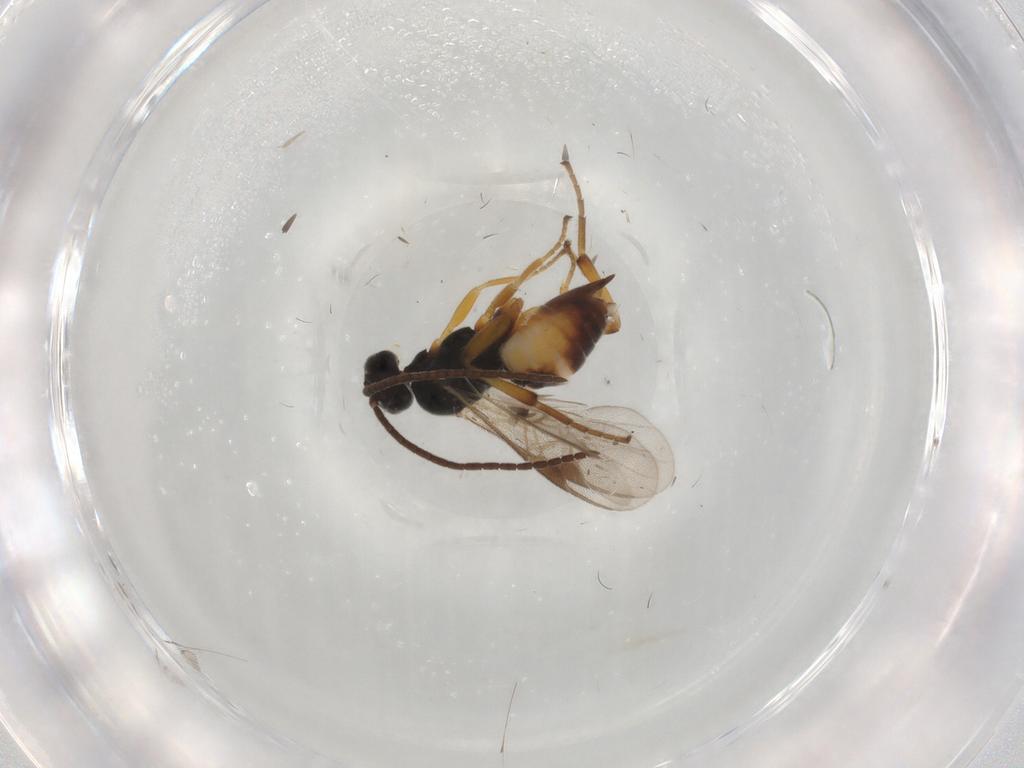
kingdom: Animalia
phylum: Arthropoda
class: Insecta
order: Hymenoptera
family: Braconidae
